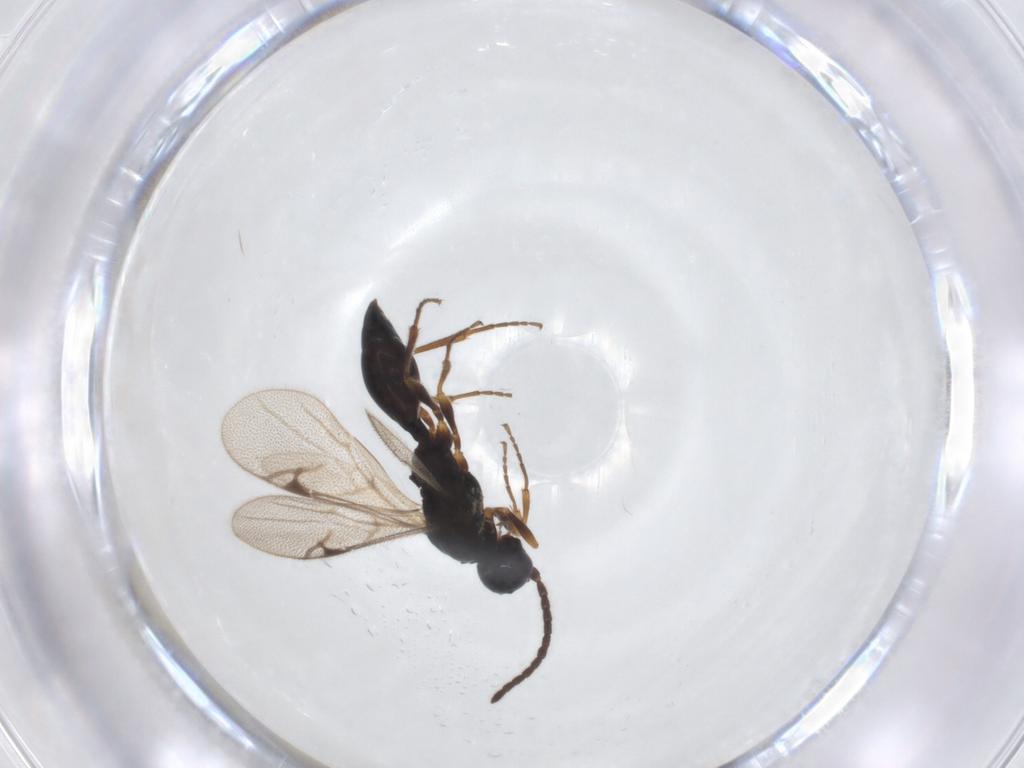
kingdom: Animalia
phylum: Arthropoda
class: Insecta
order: Hymenoptera
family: Proctotrupidae
